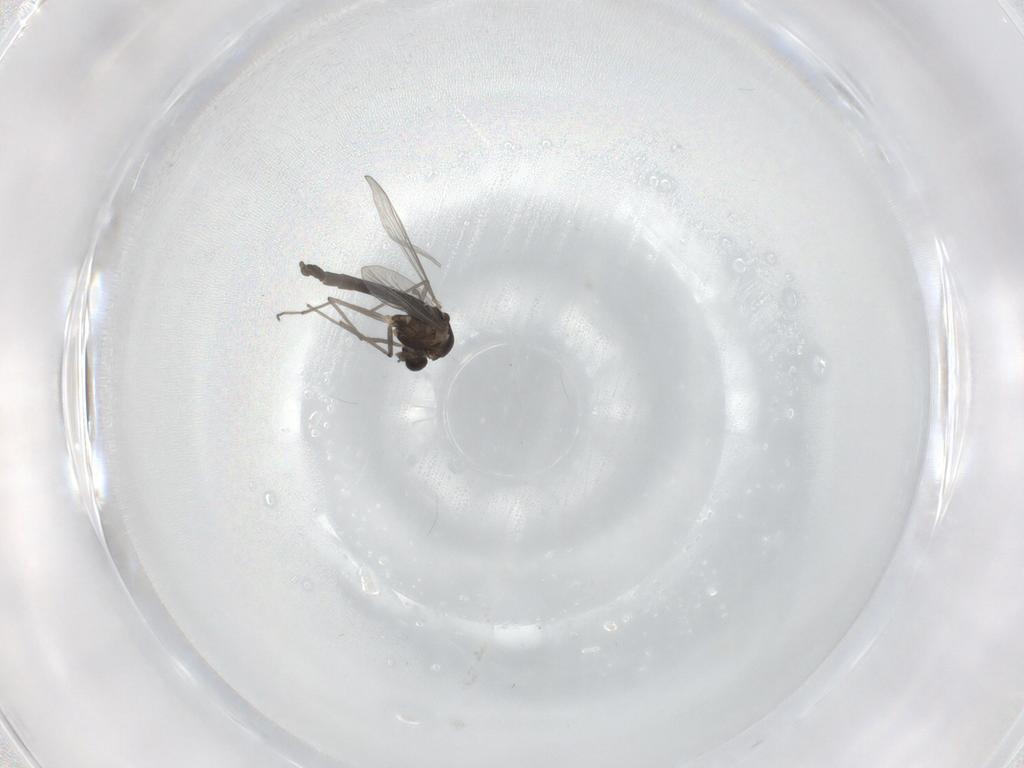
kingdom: Animalia
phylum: Arthropoda
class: Insecta
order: Diptera
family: Chironomidae
